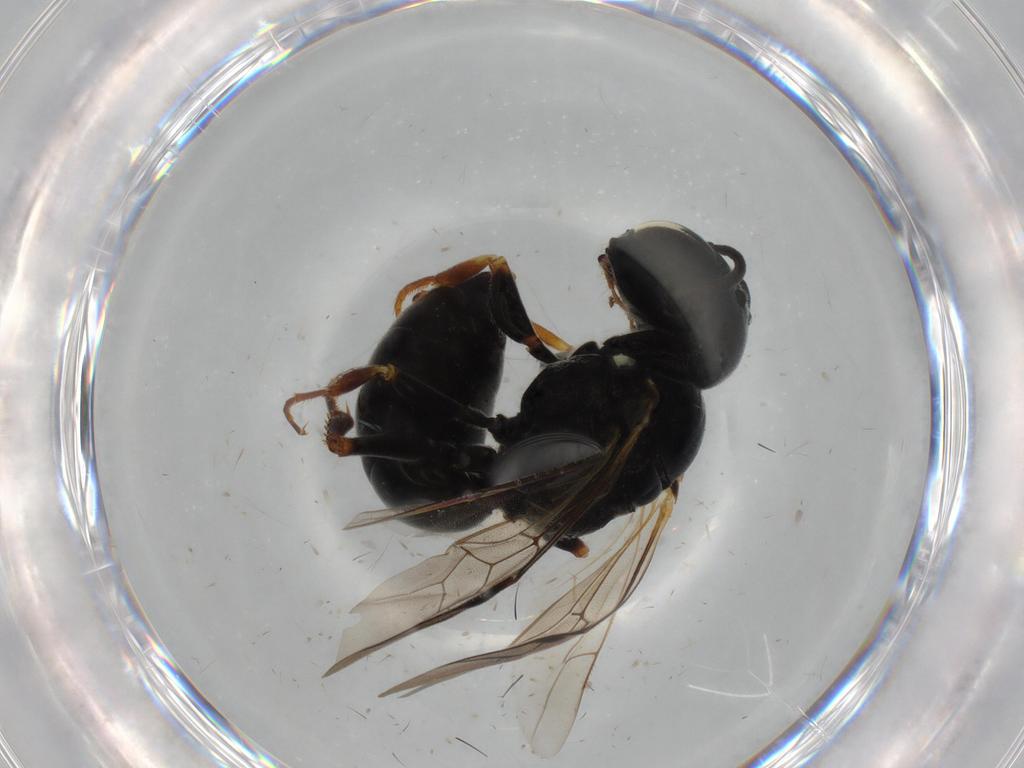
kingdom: Animalia
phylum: Arthropoda
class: Insecta
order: Hymenoptera
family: Crabronidae
